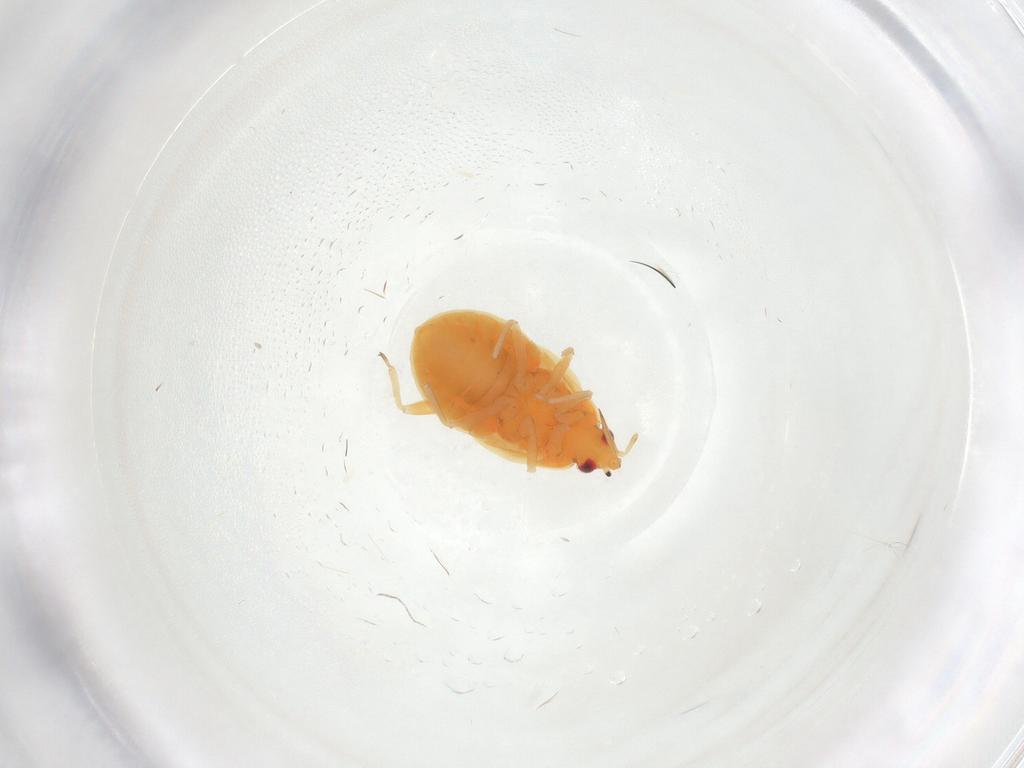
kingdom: Animalia
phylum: Arthropoda
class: Insecta
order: Hemiptera
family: Anthocoridae
